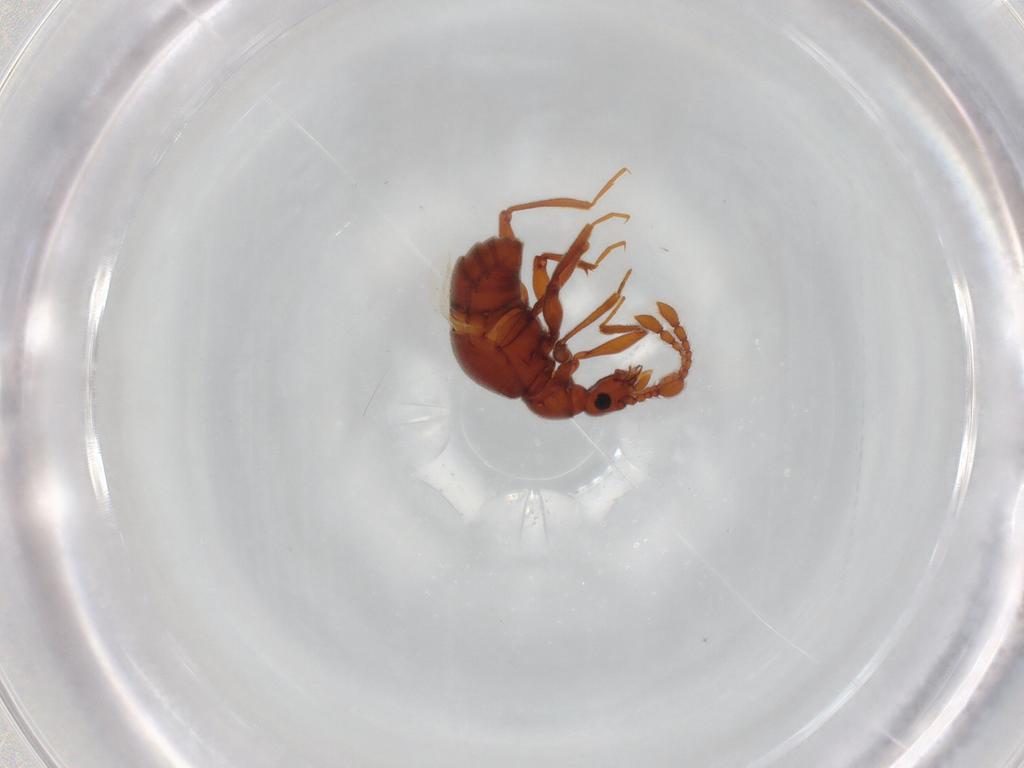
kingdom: Animalia
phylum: Arthropoda
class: Insecta
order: Coleoptera
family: Staphylinidae
